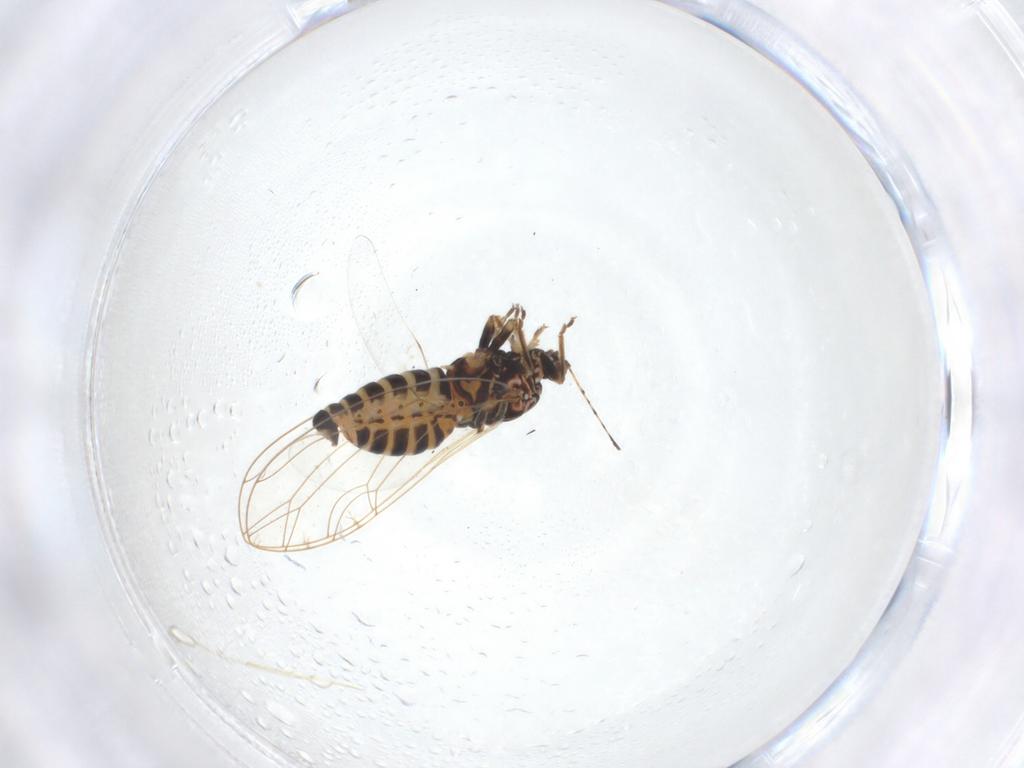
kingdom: Animalia
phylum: Arthropoda
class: Insecta
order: Hemiptera
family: Triozidae
